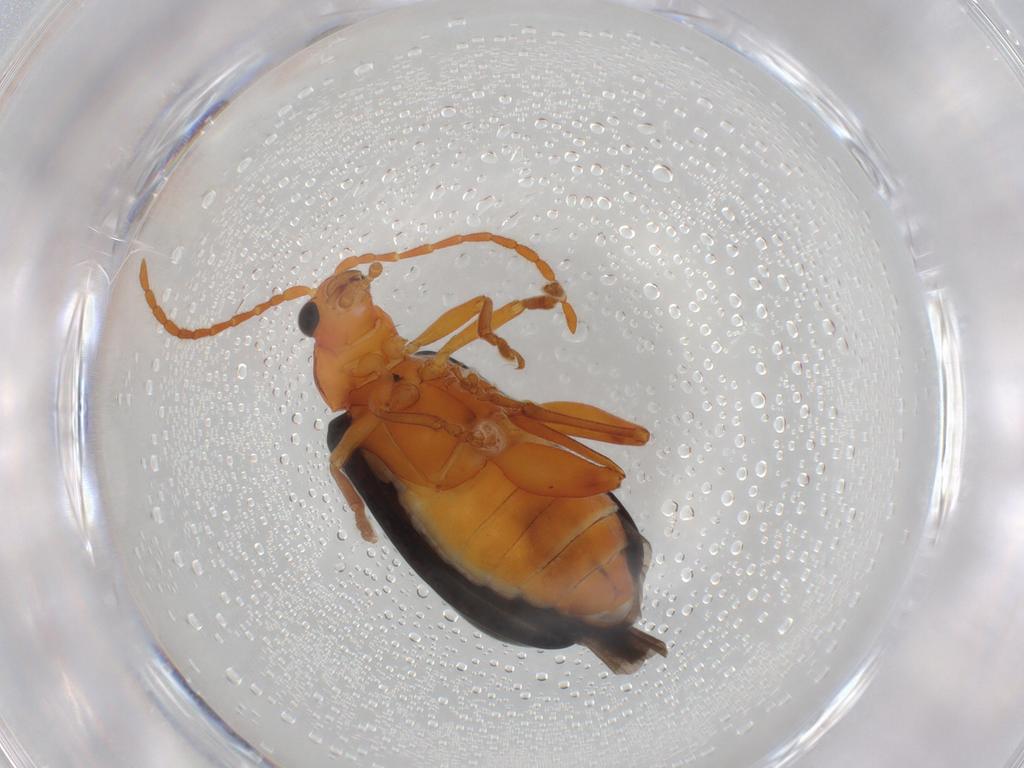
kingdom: Animalia
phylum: Arthropoda
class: Insecta
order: Coleoptera
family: Chrysomelidae
